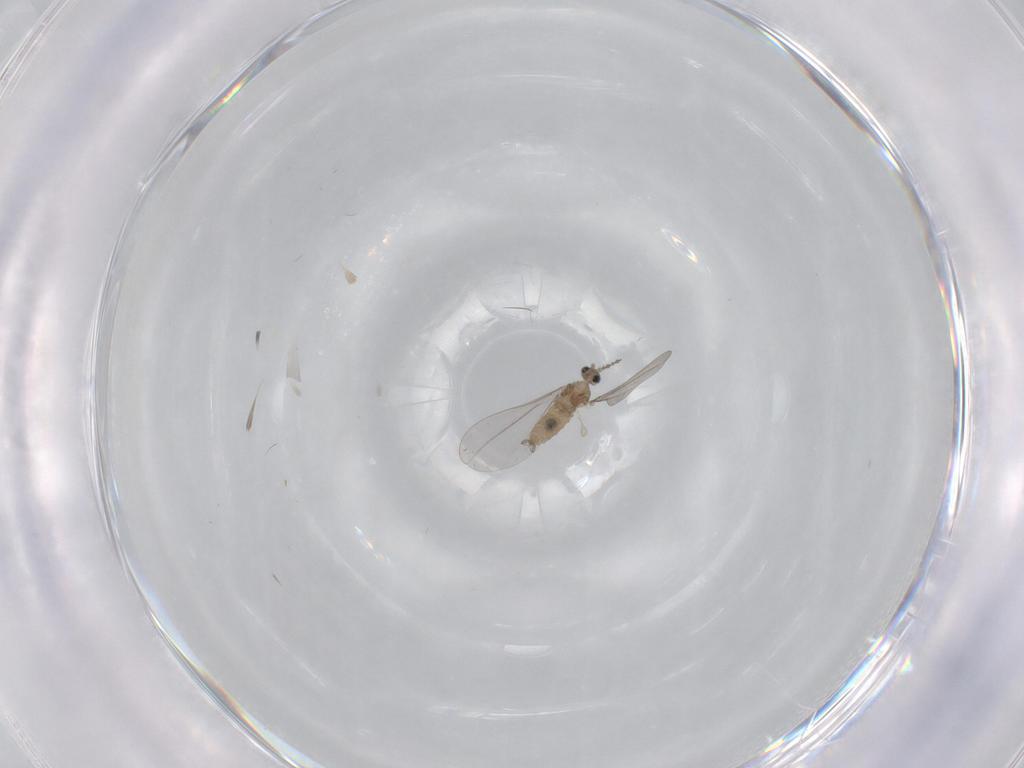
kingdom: Animalia
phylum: Arthropoda
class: Insecta
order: Diptera
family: Cecidomyiidae
